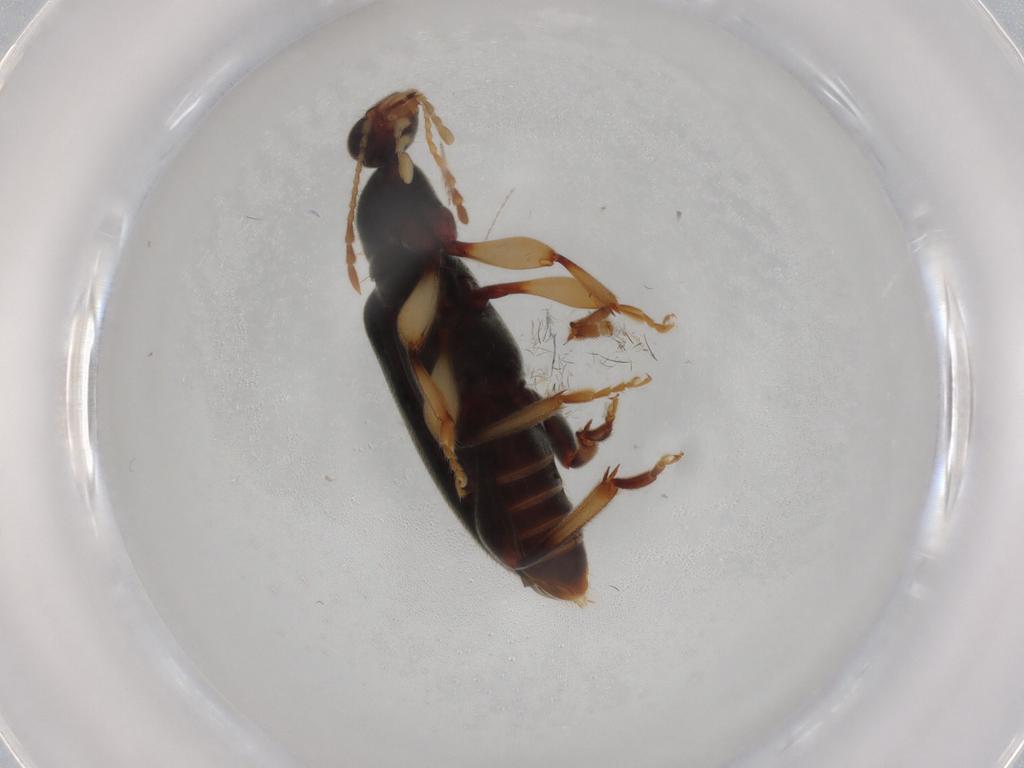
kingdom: Animalia
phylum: Arthropoda
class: Insecta
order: Coleoptera
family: Anthicidae
